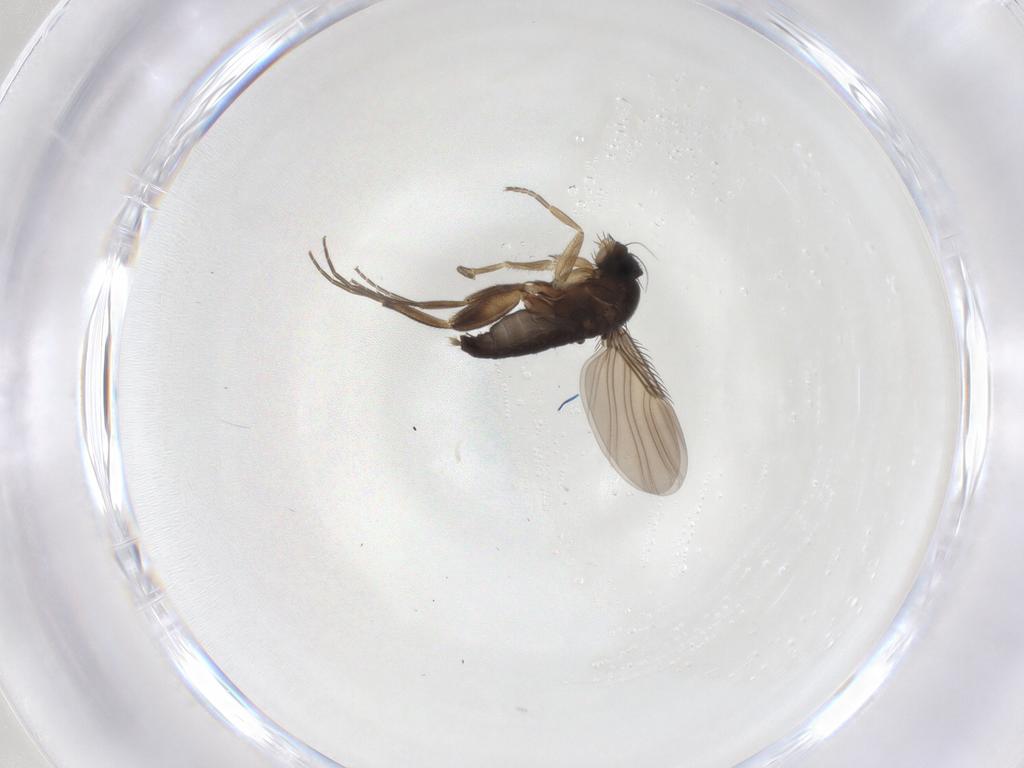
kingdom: Animalia
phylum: Arthropoda
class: Insecta
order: Diptera
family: Phoridae
